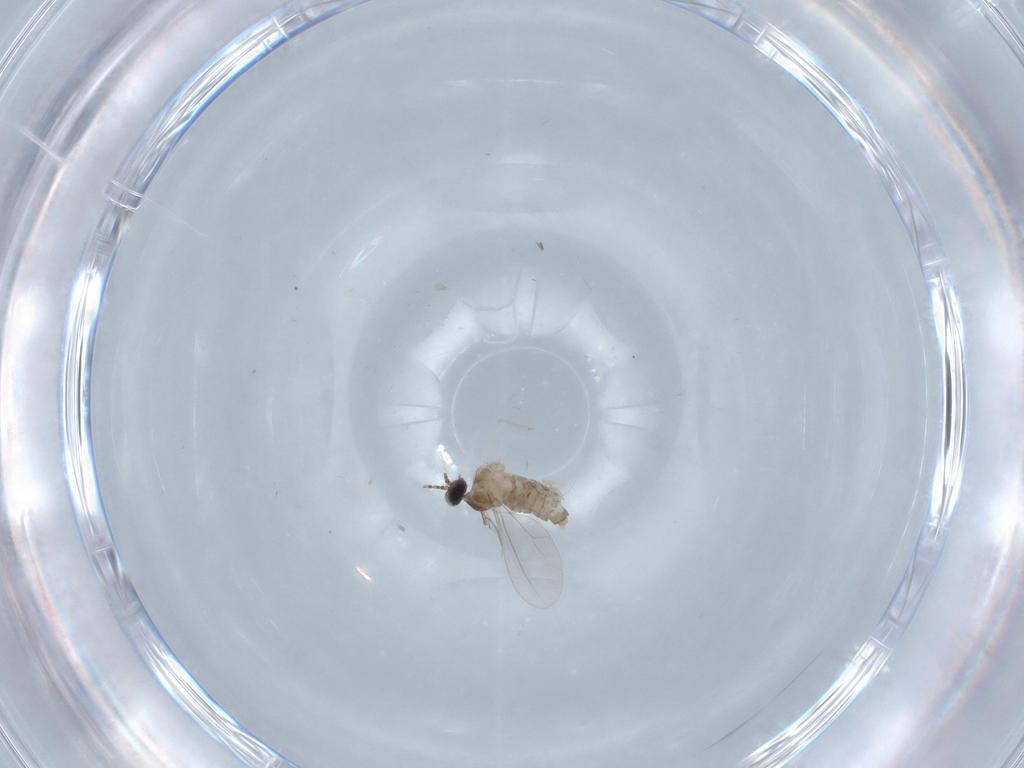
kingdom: Animalia
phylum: Arthropoda
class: Insecta
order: Diptera
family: Cecidomyiidae
